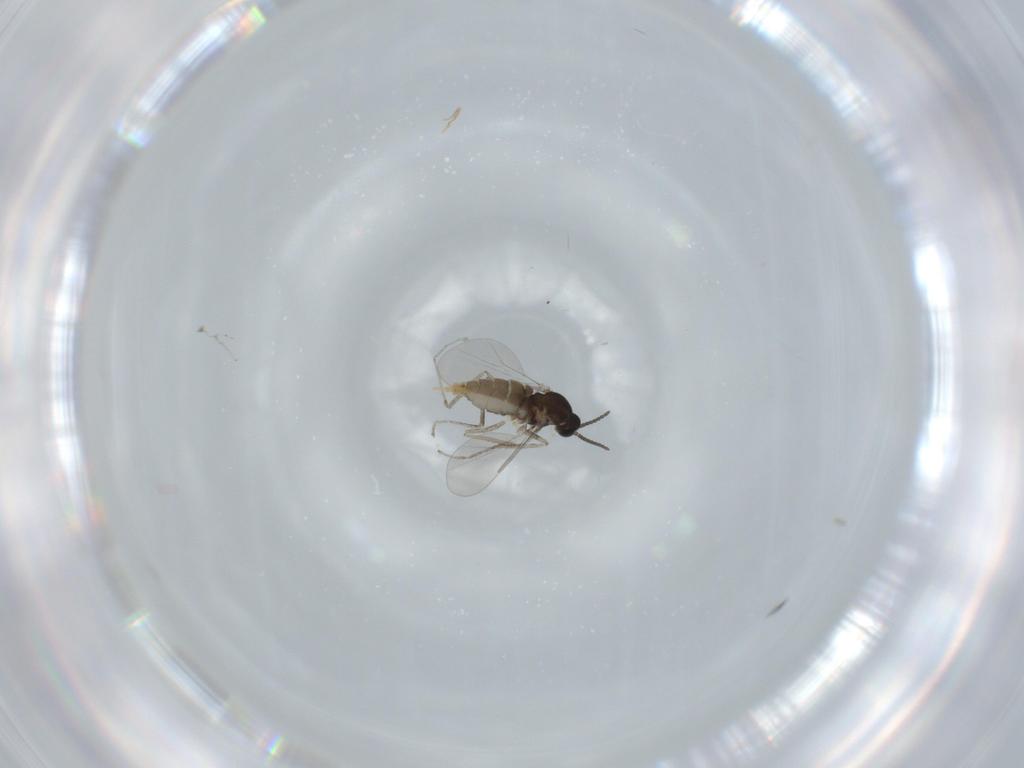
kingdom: Animalia
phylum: Arthropoda
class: Insecta
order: Diptera
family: Cecidomyiidae
